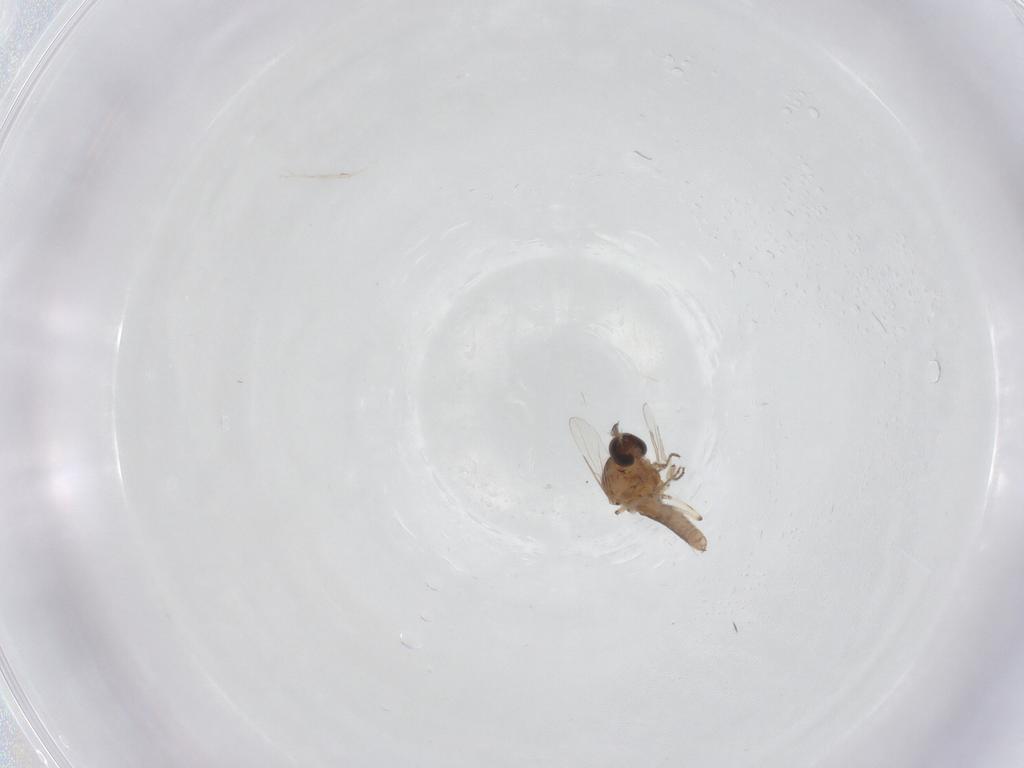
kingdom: Animalia
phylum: Arthropoda
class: Insecta
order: Diptera
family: Ceratopogonidae
